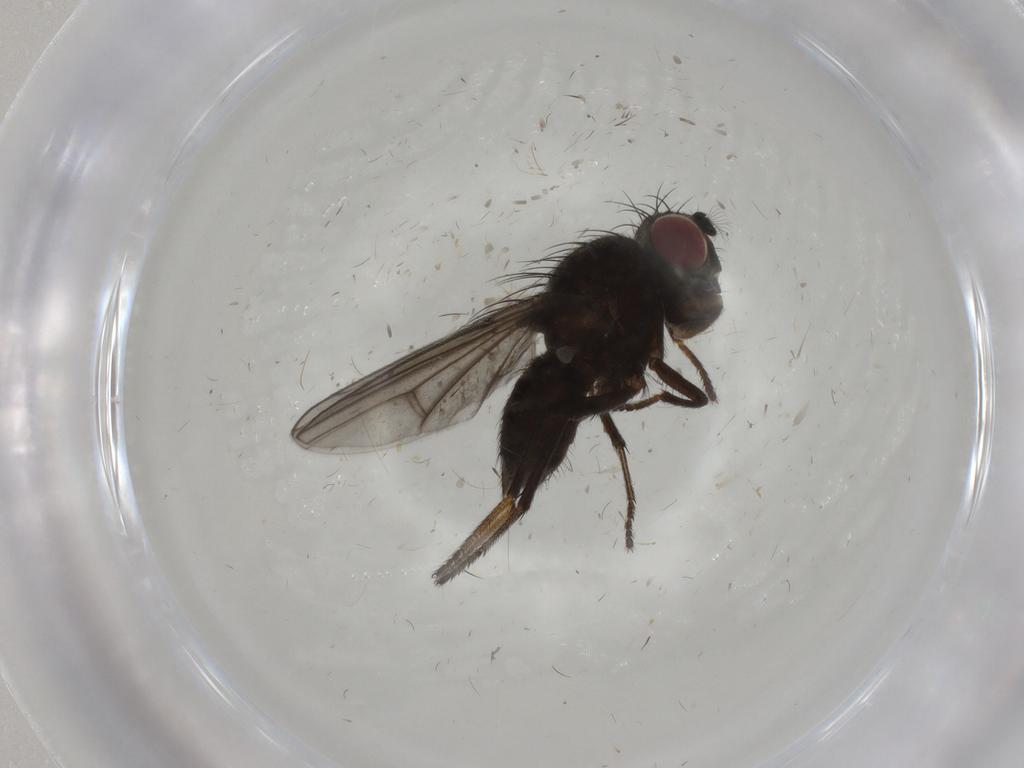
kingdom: Animalia
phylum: Arthropoda
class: Insecta
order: Diptera
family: Ephydridae
